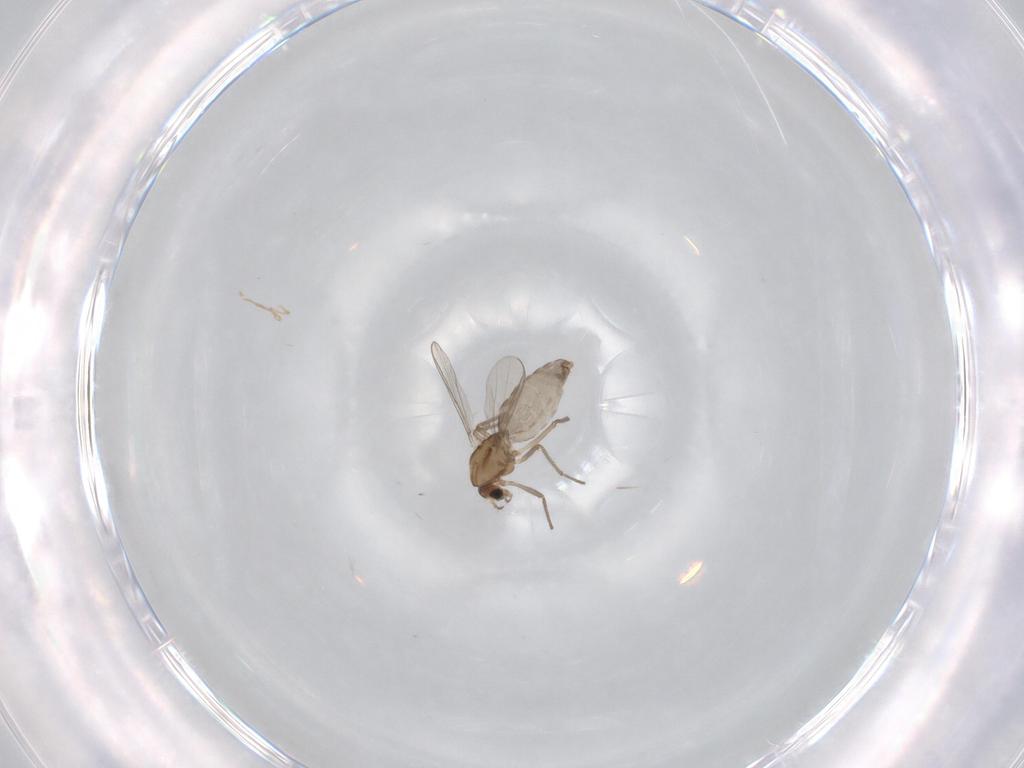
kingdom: Animalia
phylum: Arthropoda
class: Insecta
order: Diptera
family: Chironomidae
